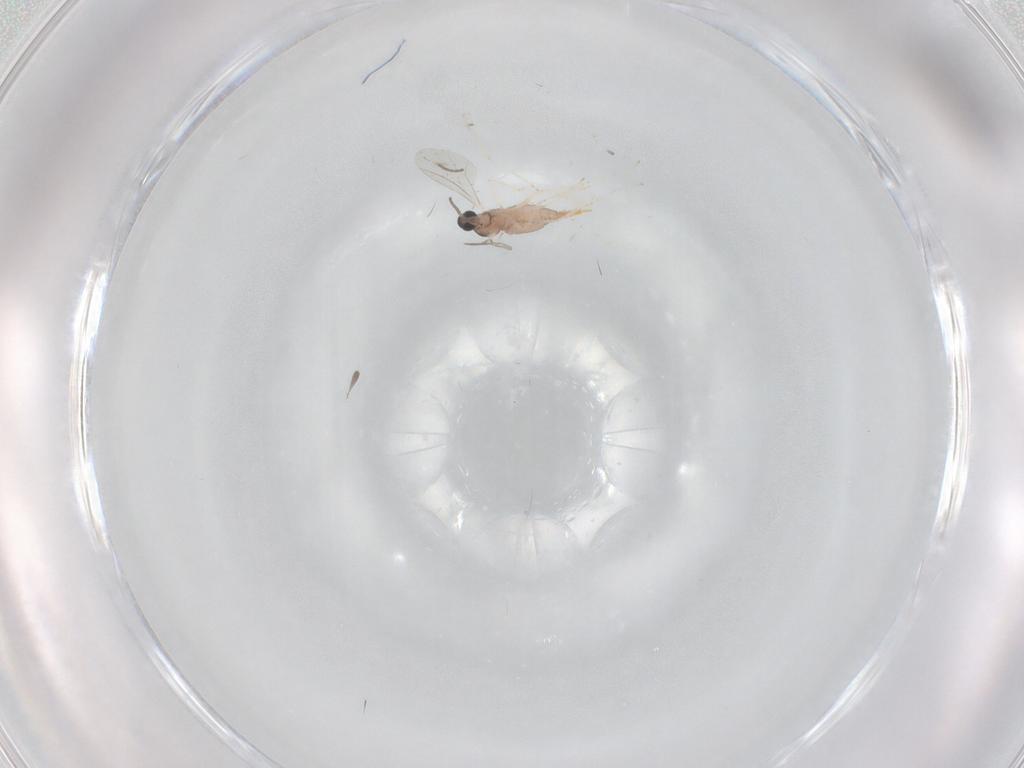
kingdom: Animalia
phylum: Arthropoda
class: Insecta
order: Diptera
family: Cecidomyiidae
